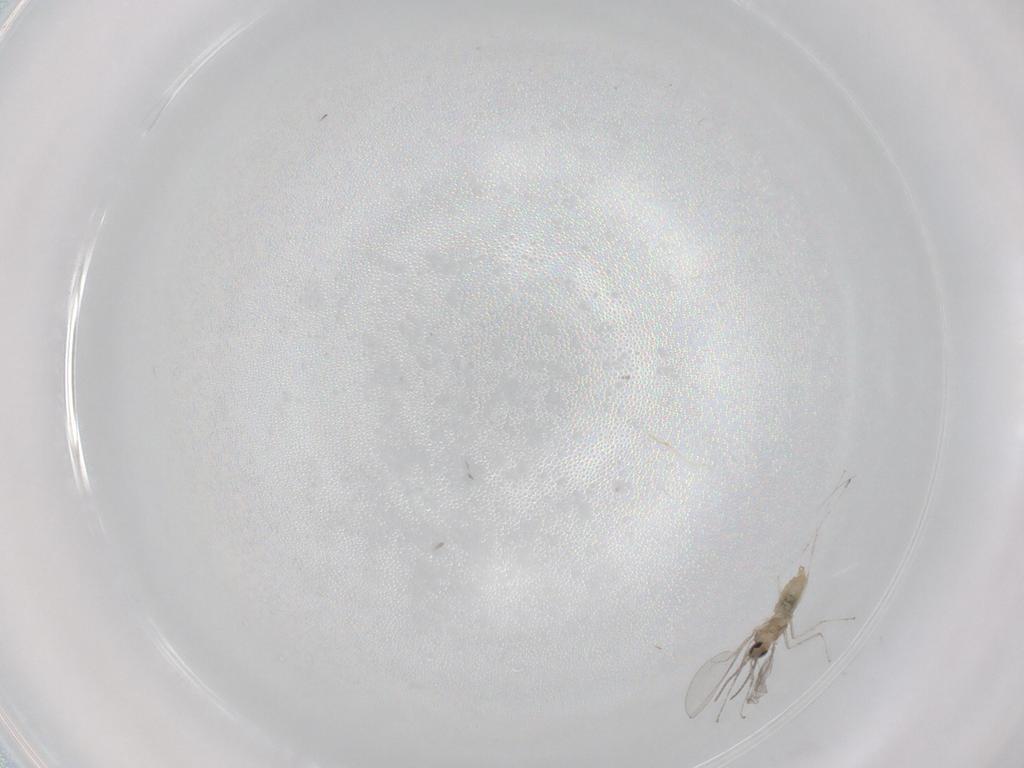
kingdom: Animalia
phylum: Arthropoda
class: Insecta
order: Diptera
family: Cecidomyiidae
